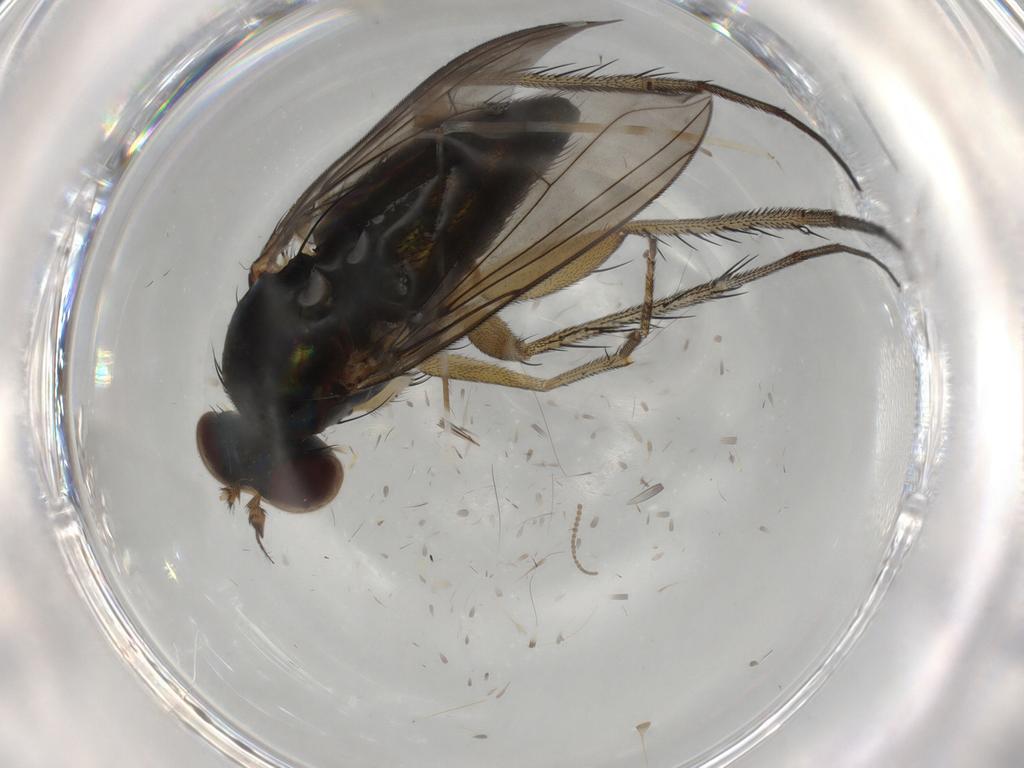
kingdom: Animalia
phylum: Arthropoda
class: Insecta
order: Diptera
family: Dolichopodidae
